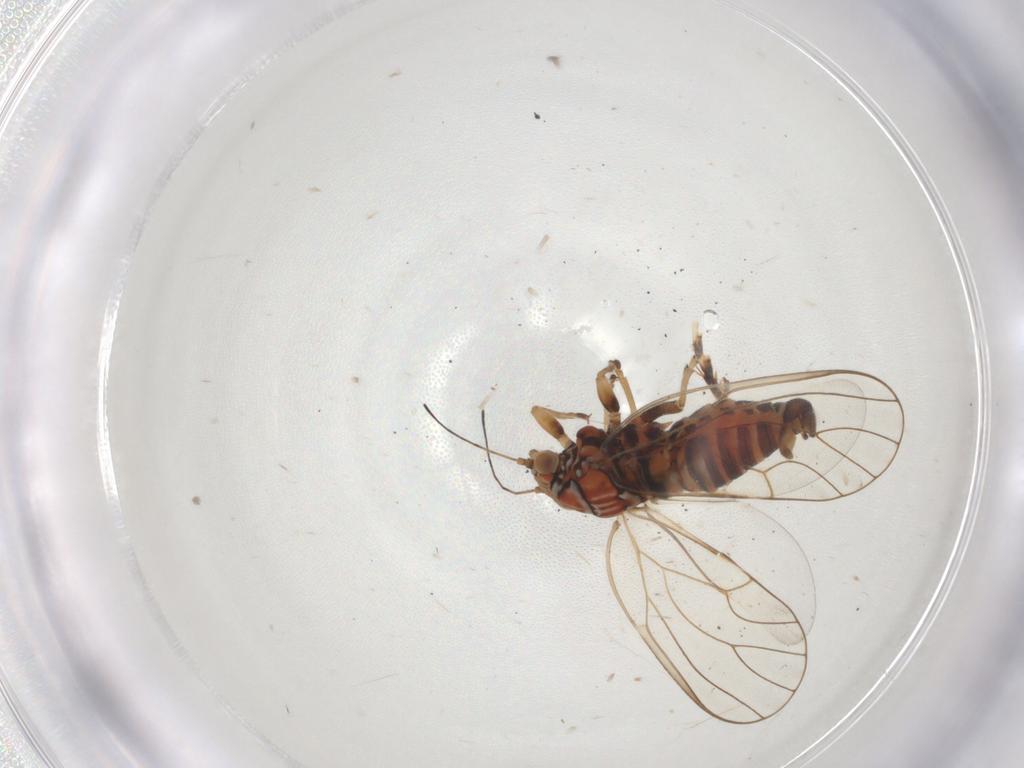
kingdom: Animalia
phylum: Arthropoda
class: Insecta
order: Hemiptera
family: Cicadellidae
